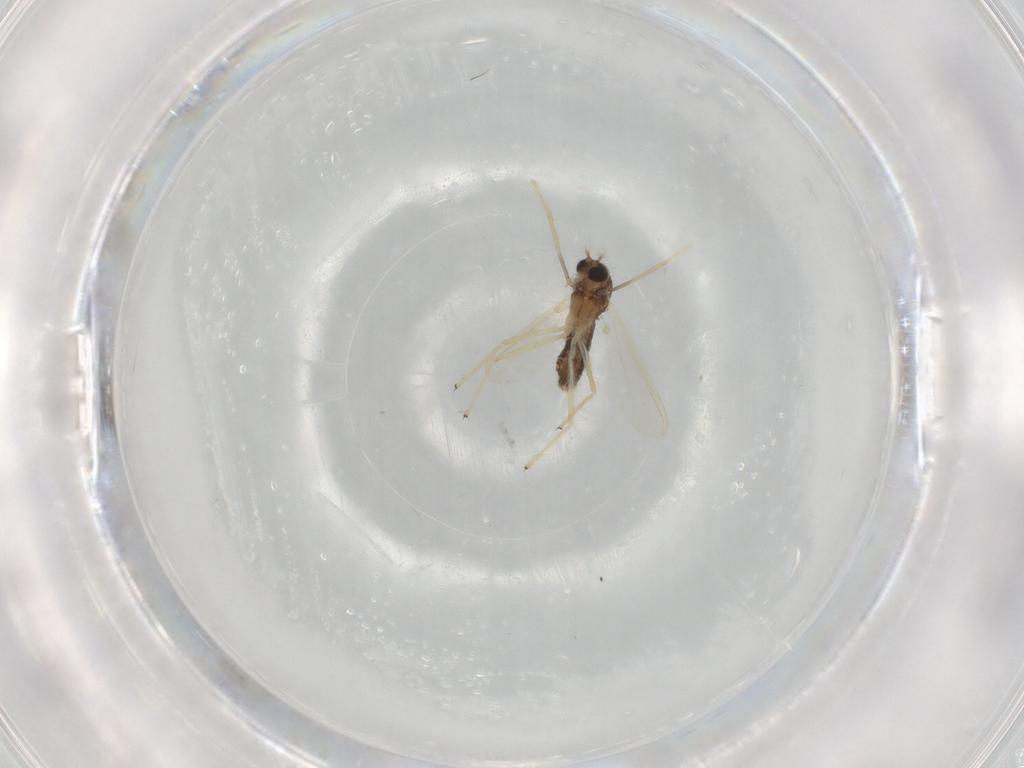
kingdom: Animalia
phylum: Arthropoda
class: Insecta
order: Diptera
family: Chironomidae
